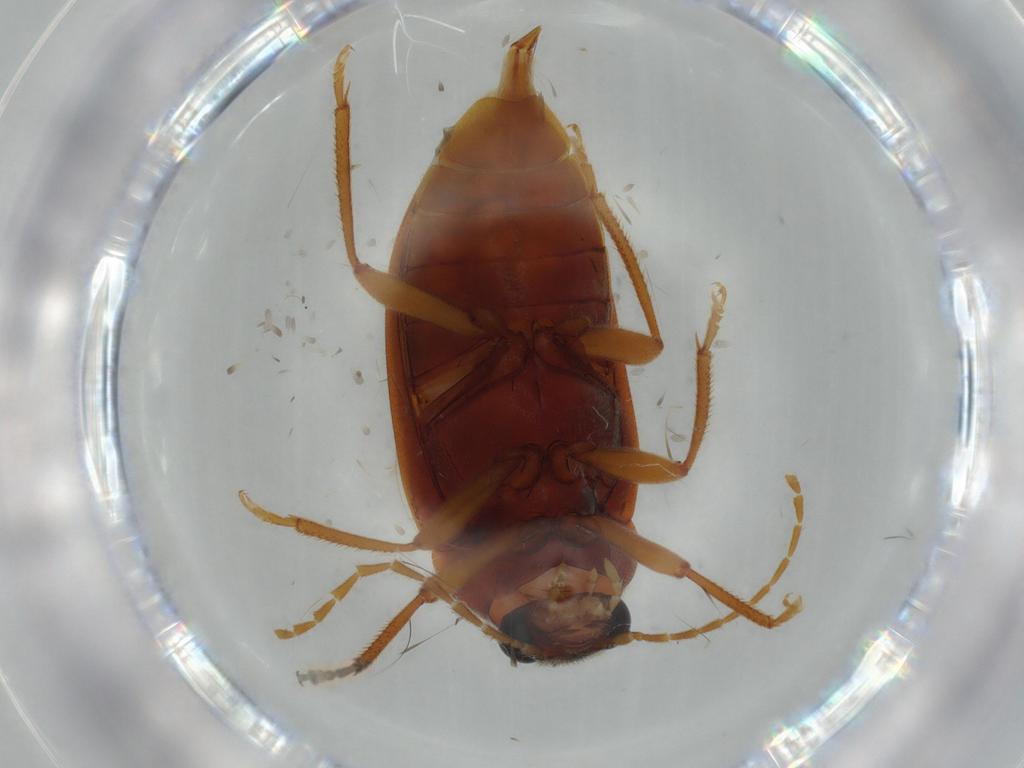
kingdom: Animalia
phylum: Arthropoda
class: Insecta
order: Coleoptera
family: Ptilodactylidae
